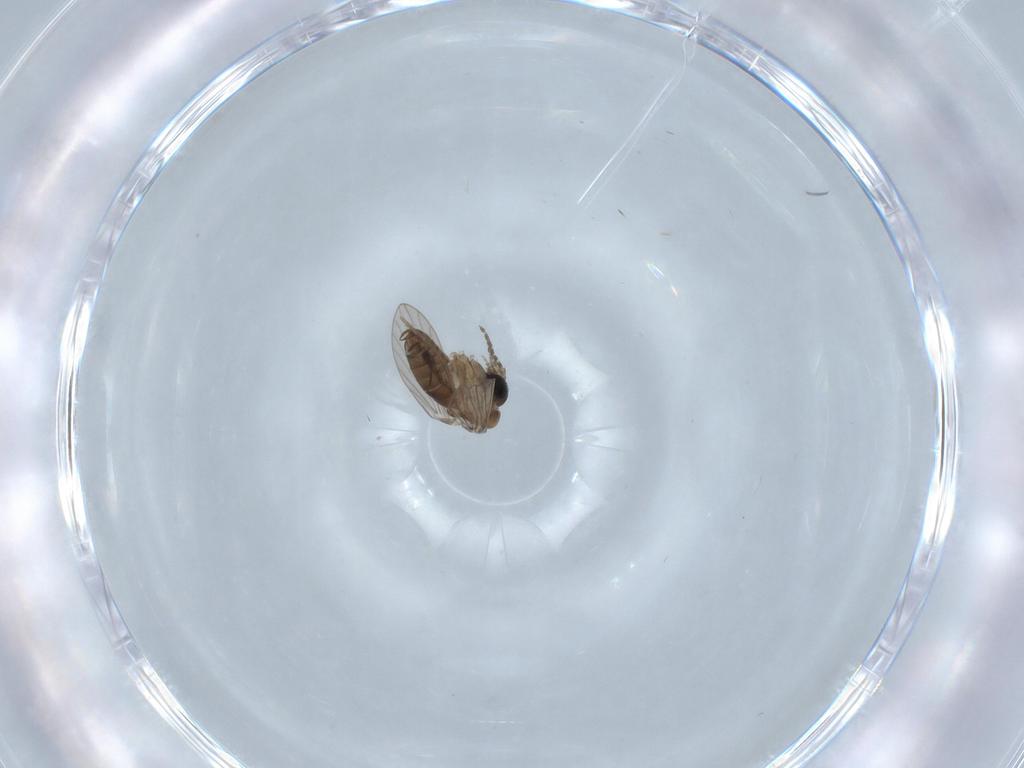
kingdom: Animalia
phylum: Arthropoda
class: Insecta
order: Diptera
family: Psychodidae
